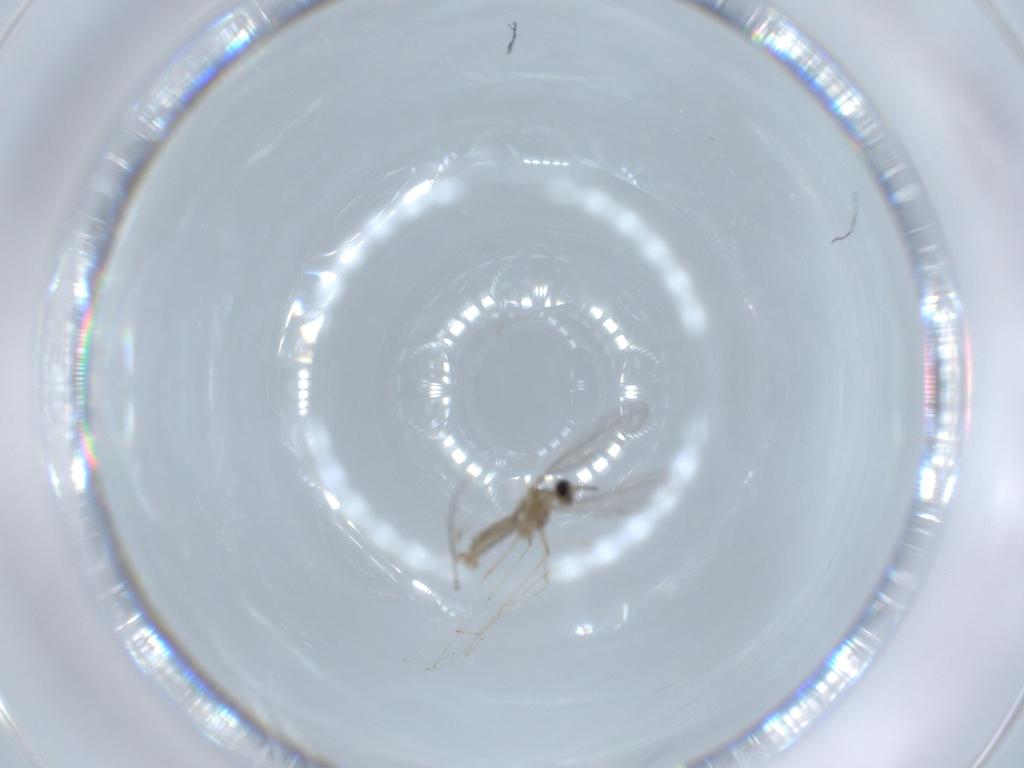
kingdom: Animalia
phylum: Arthropoda
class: Insecta
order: Diptera
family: Cecidomyiidae
